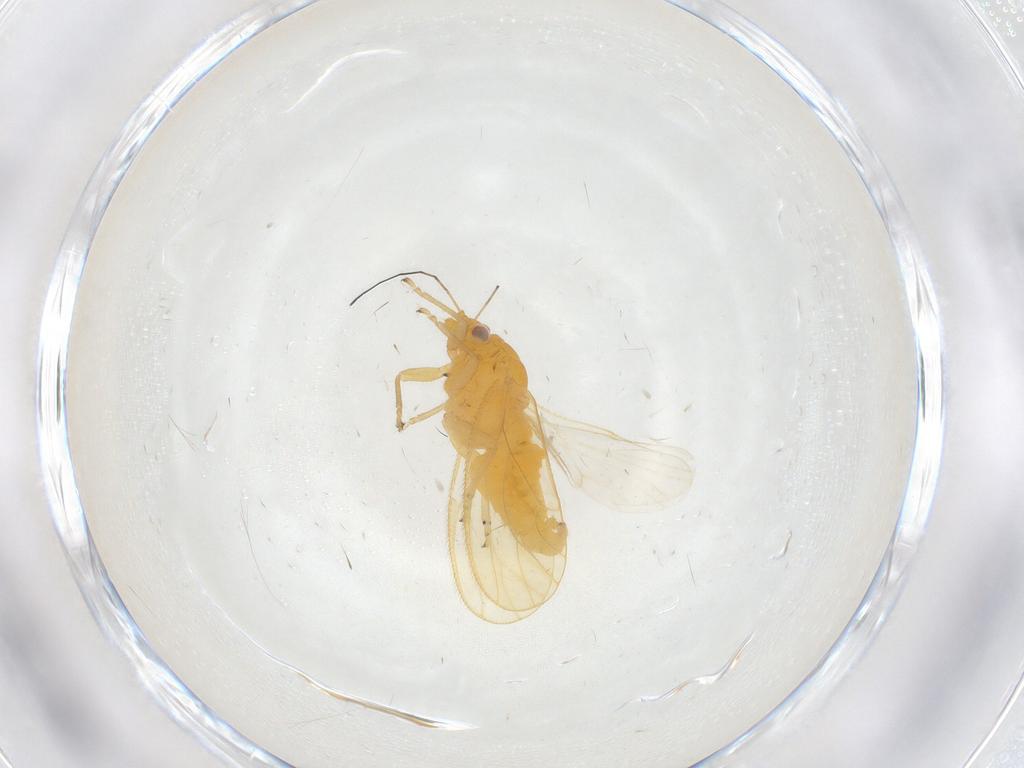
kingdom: Animalia
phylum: Arthropoda
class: Insecta
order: Hemiptera
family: Psyllidae
